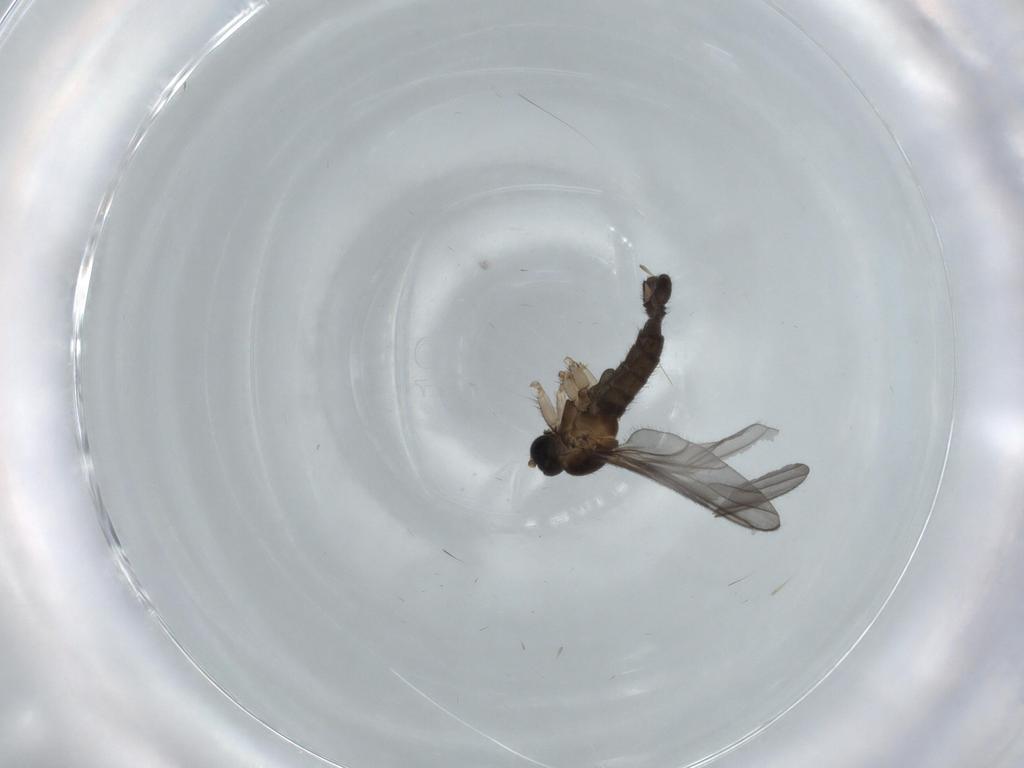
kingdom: Animalia
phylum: Arthropoda
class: Insecta
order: Diptera
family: Sciaridae
